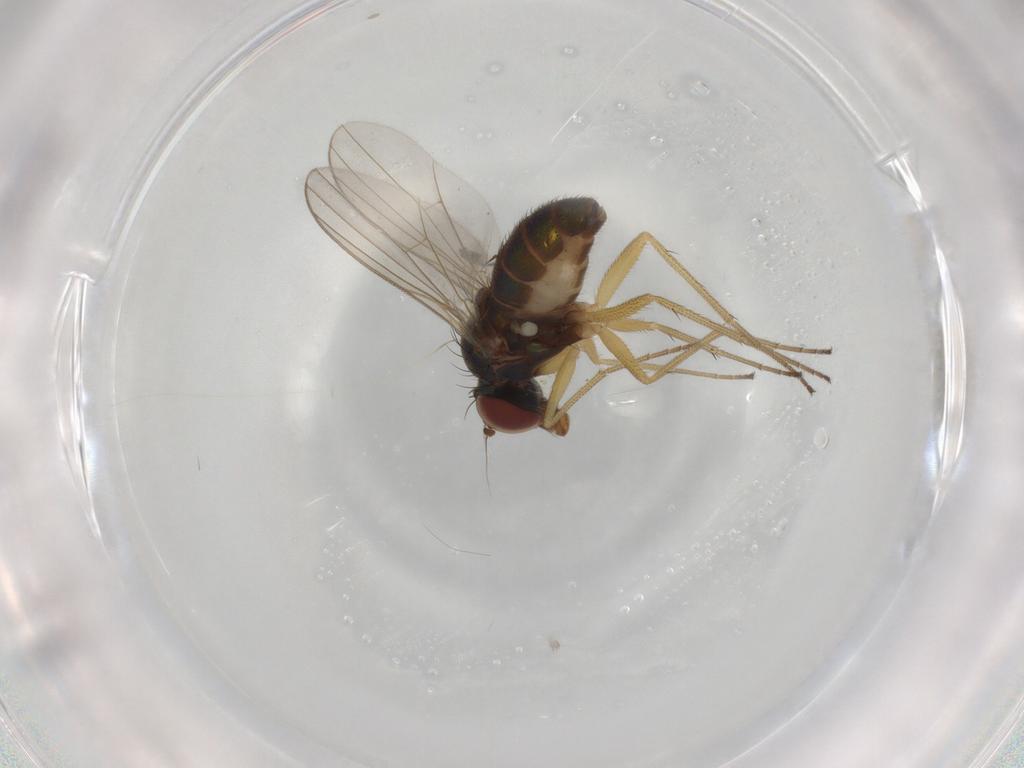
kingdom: Animalia
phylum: Arthropoda
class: Insecta
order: Diptera
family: Dolichopodidae
